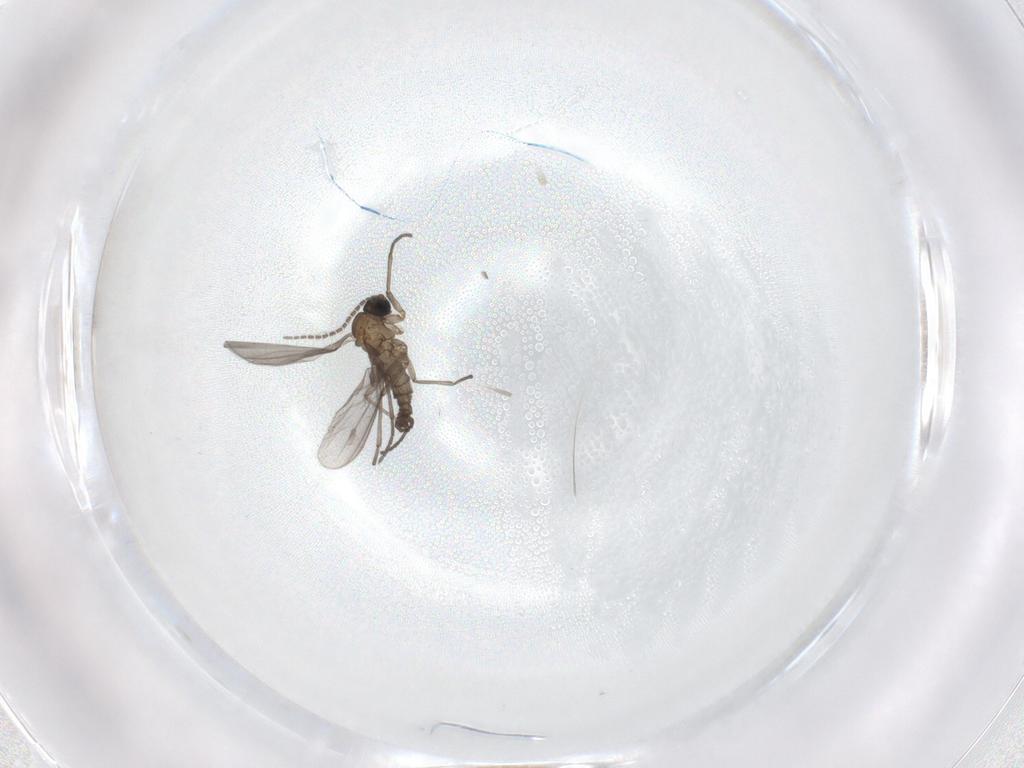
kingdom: Animalia
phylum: Arthropoda
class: Insecta
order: Diptera
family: Sciaridae
